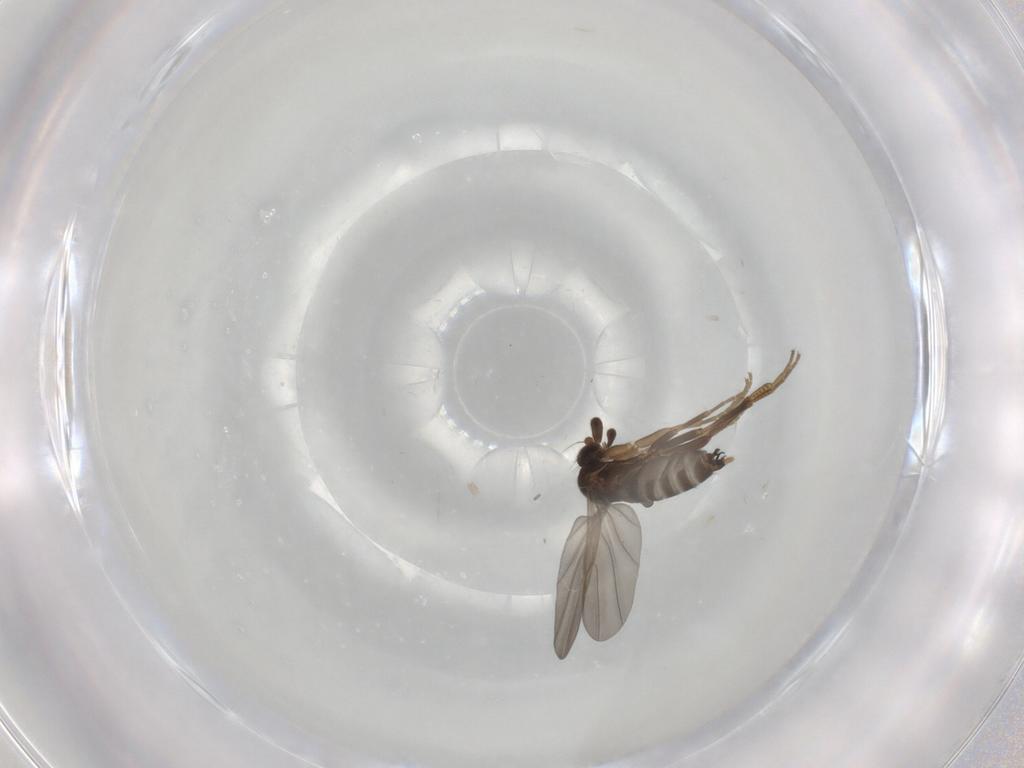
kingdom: Animalia
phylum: Arthropoda
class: Insecta
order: Diptera
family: Phoridae
